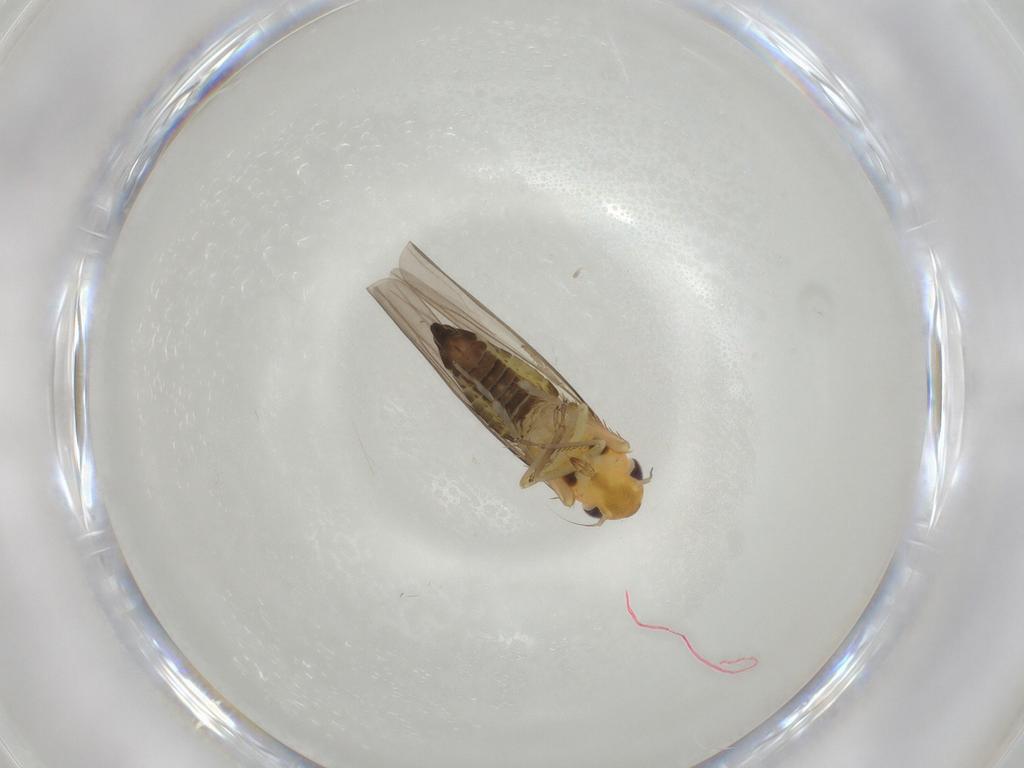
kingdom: Animalia
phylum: Arthropoda
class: Insecta
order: Hemiptera
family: Cicadellidae
